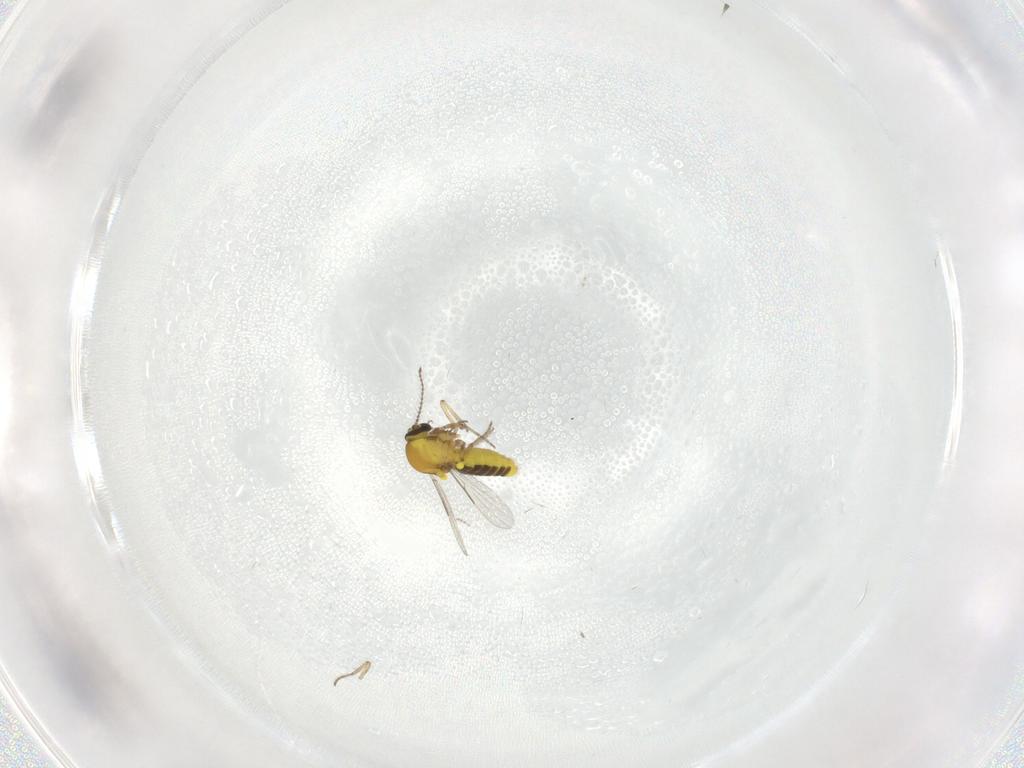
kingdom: Animalia
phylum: Arthropoda
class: Insecta
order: Diptera
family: Ceratopogonidae
